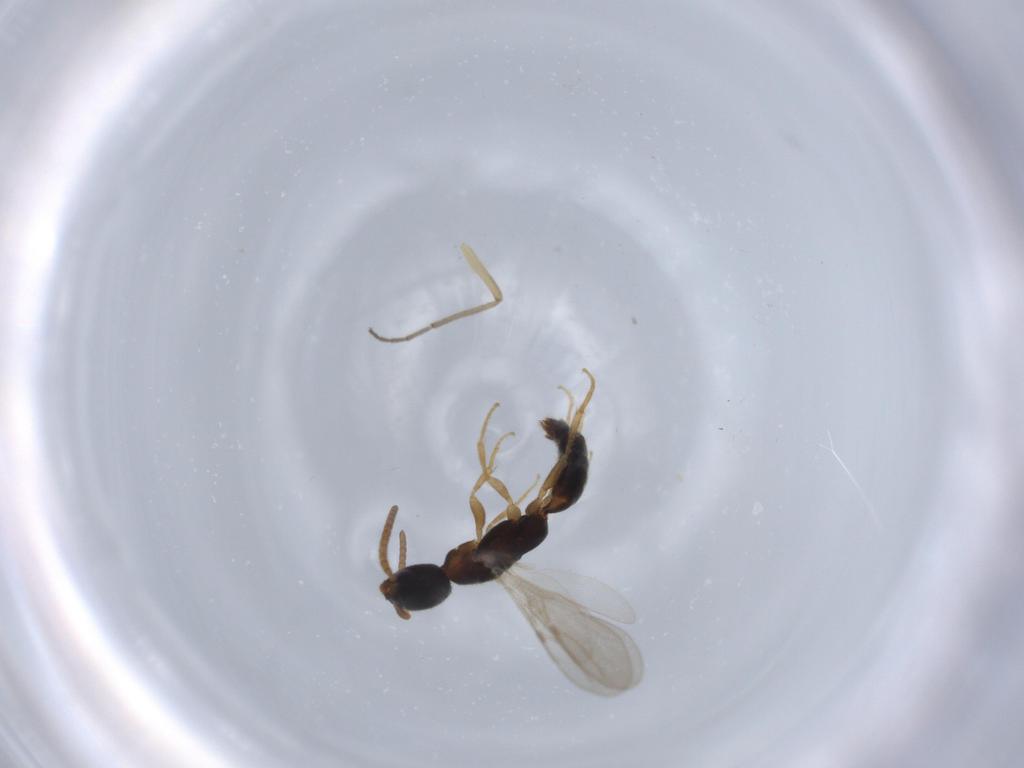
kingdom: Animalia
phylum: Arthropoda
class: Insecta
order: Hymenoptera
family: Bethylidae
